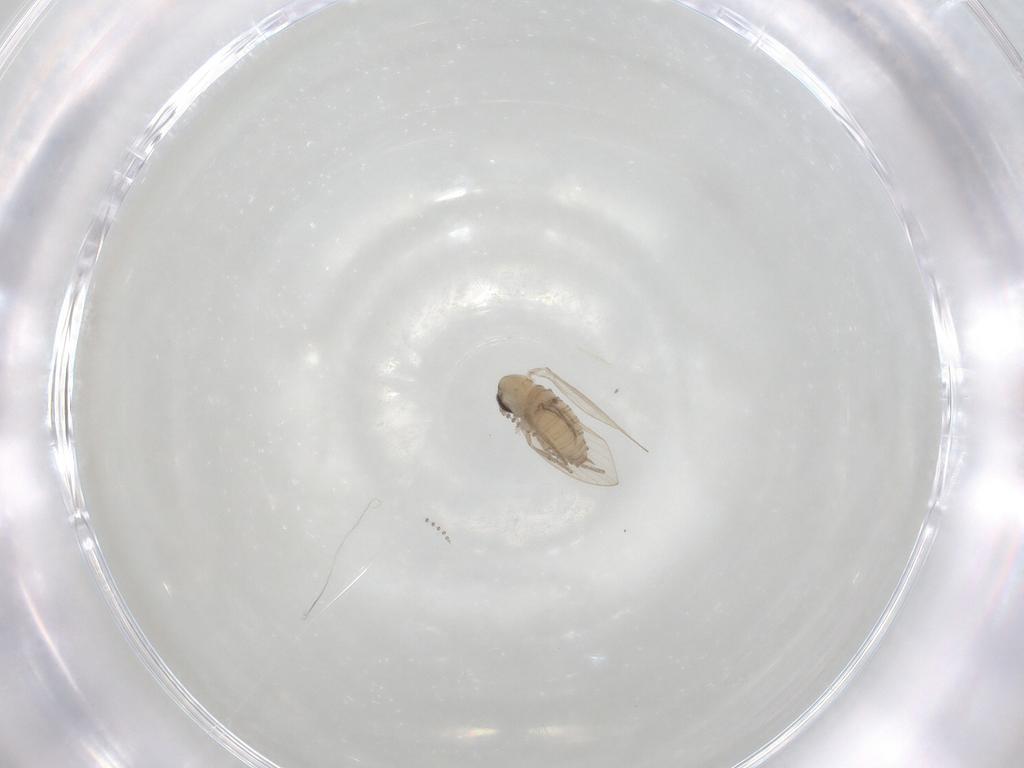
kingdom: Animalia
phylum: Arthropoda
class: Insecta
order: Diptera
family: Psychodidae
